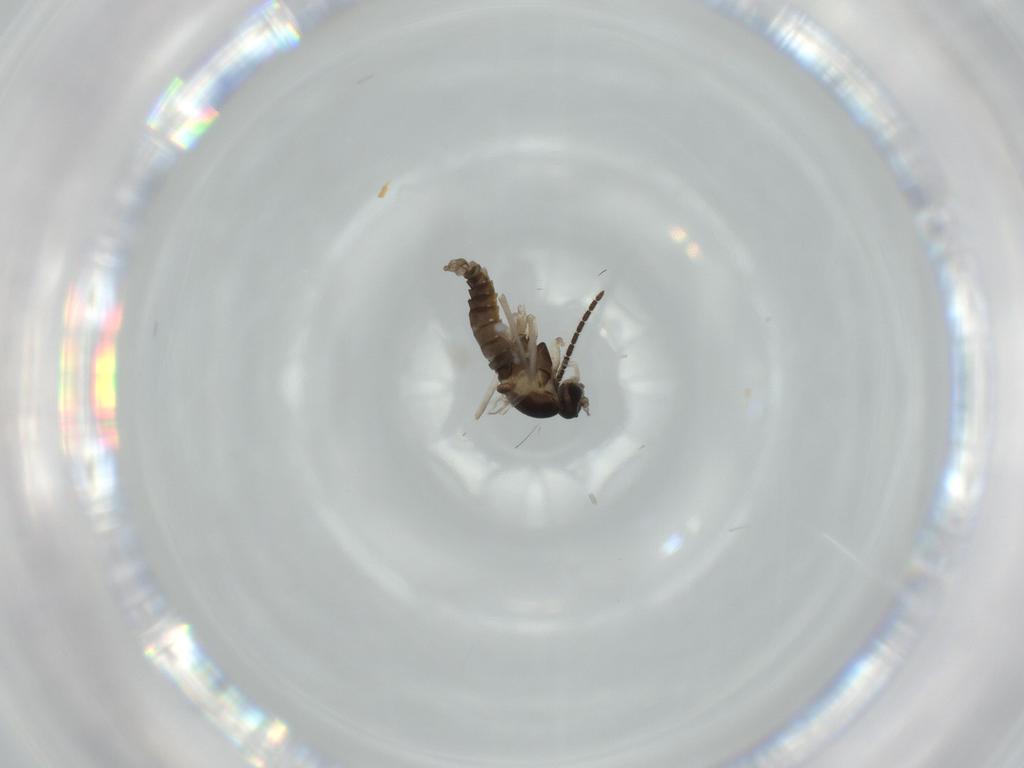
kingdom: Animalia
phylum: Arthropoda
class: Insecta
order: Diptera
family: Cecidomyiidae
